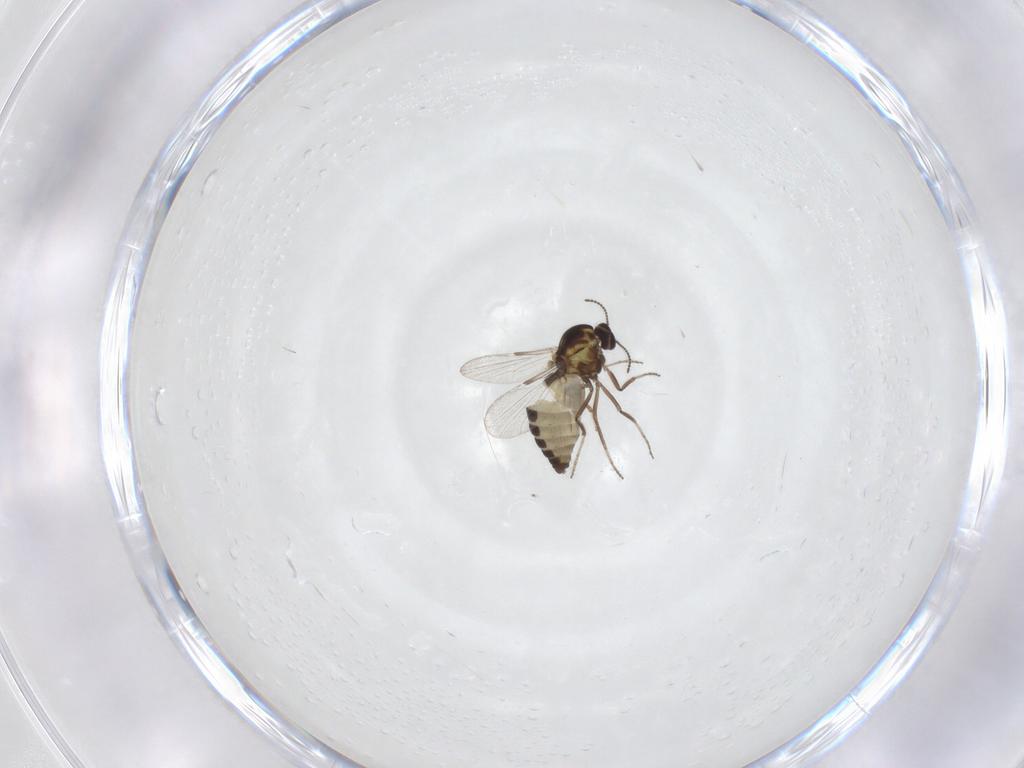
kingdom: Animalia
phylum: Arthropoda
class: Insecta
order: Diptera
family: Ceratopogonidae
